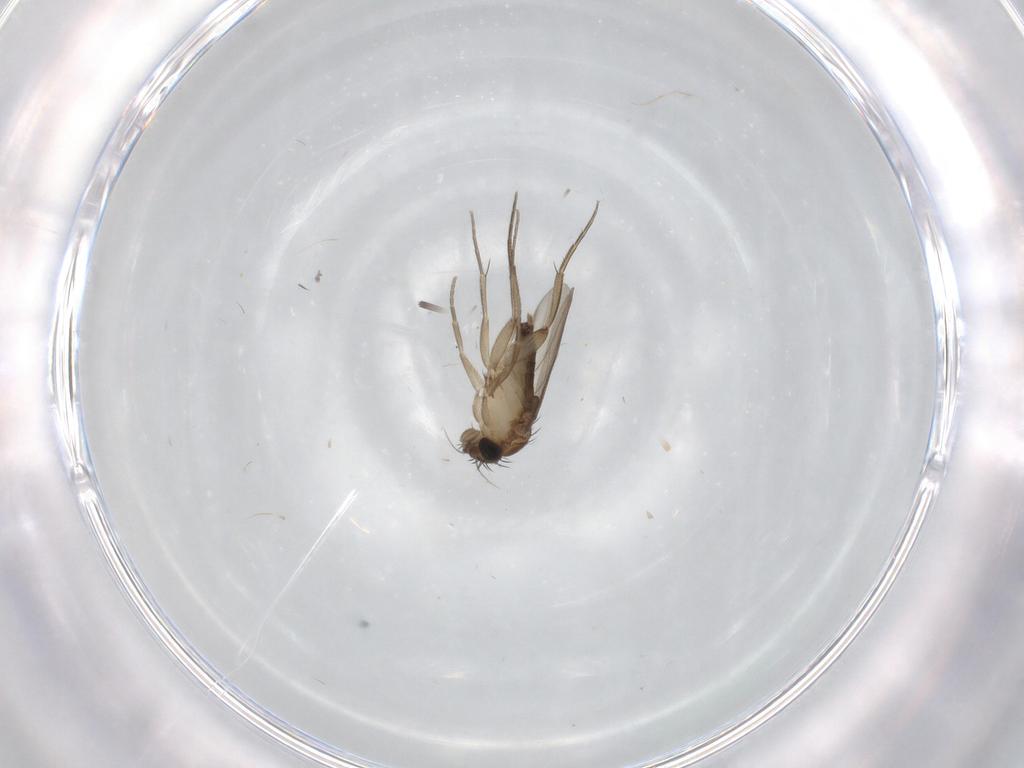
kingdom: Animalia
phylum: Arthropoda
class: Insecta
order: Diptera
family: Phoridae
